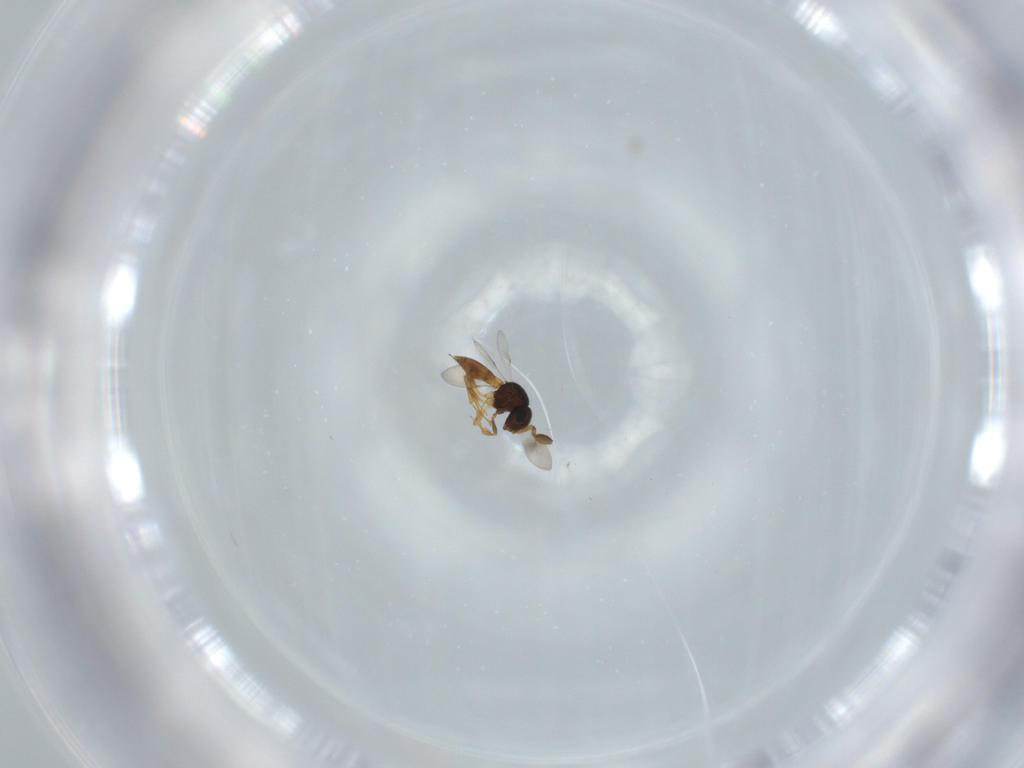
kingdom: Animalia
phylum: Arthropoda
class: Insecta
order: Hymenoptera
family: Scelionidae
